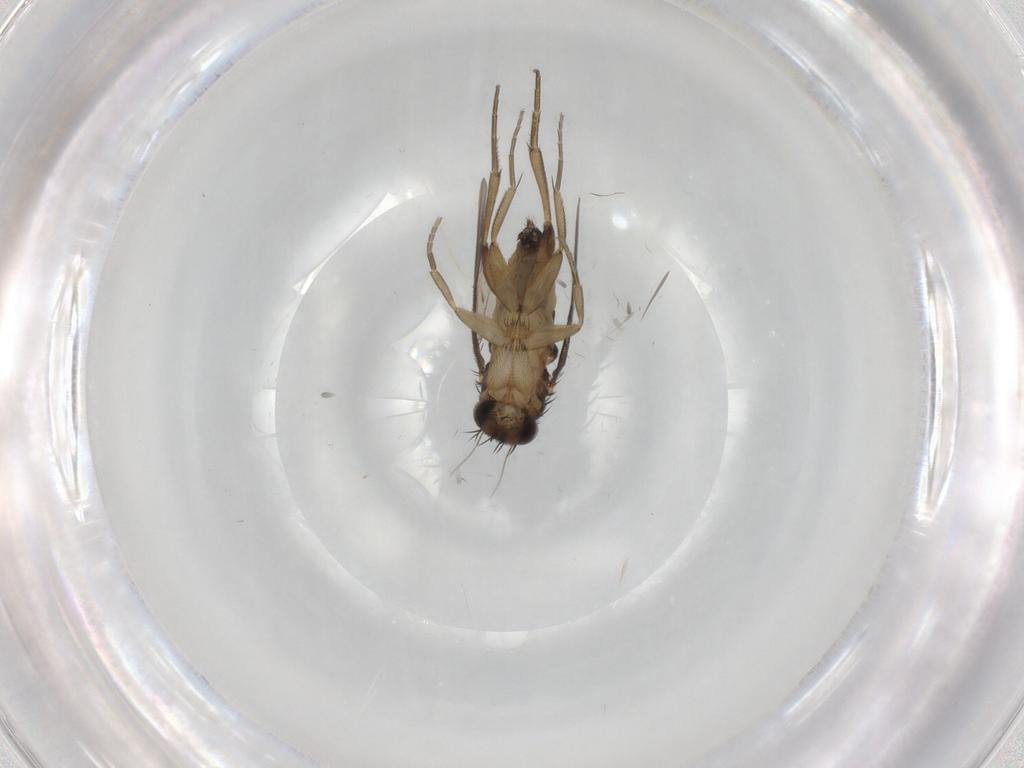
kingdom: Animalia
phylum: Arthropoda
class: Insecta
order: Diptera
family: Phoridae
